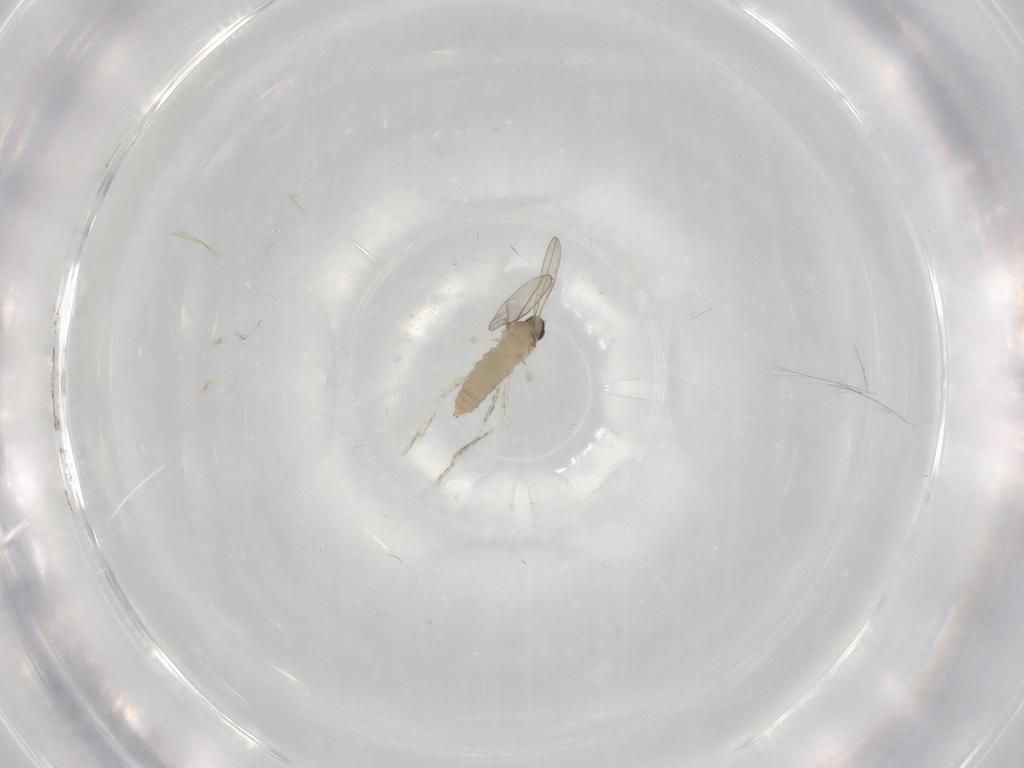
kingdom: Animalia
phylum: Arthropoda
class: Insecta
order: Diptera
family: Cecidomyiidae
